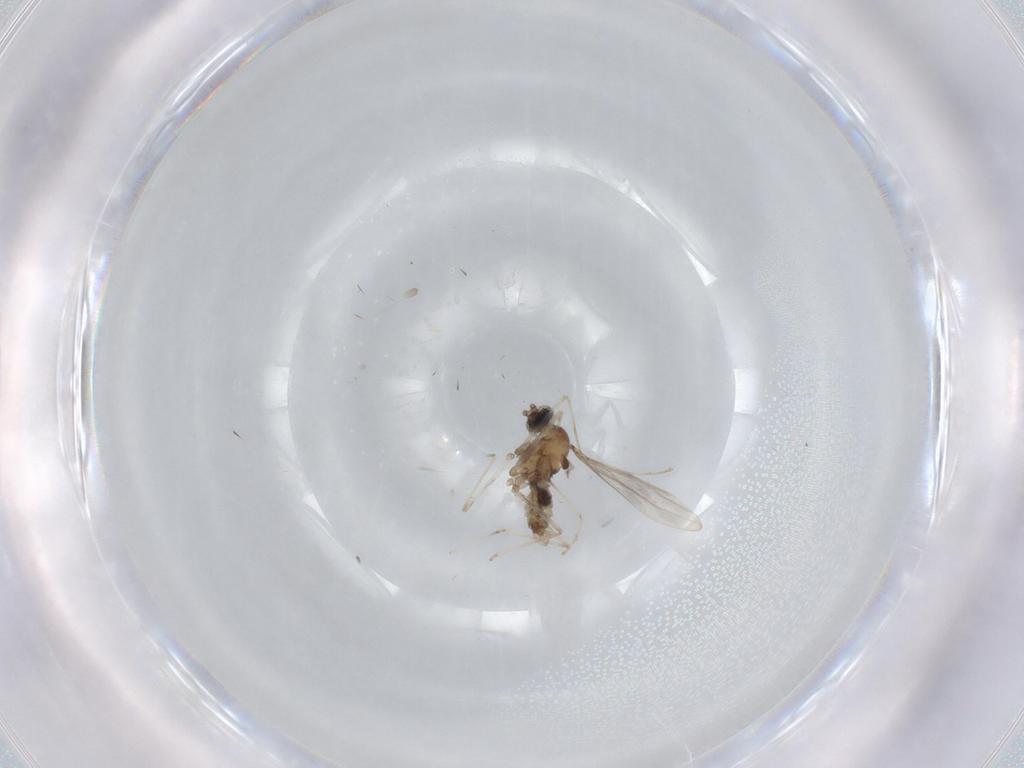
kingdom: Animalia
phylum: Arthropoda
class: Insecta
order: Diptera
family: Cecidomyiidae
